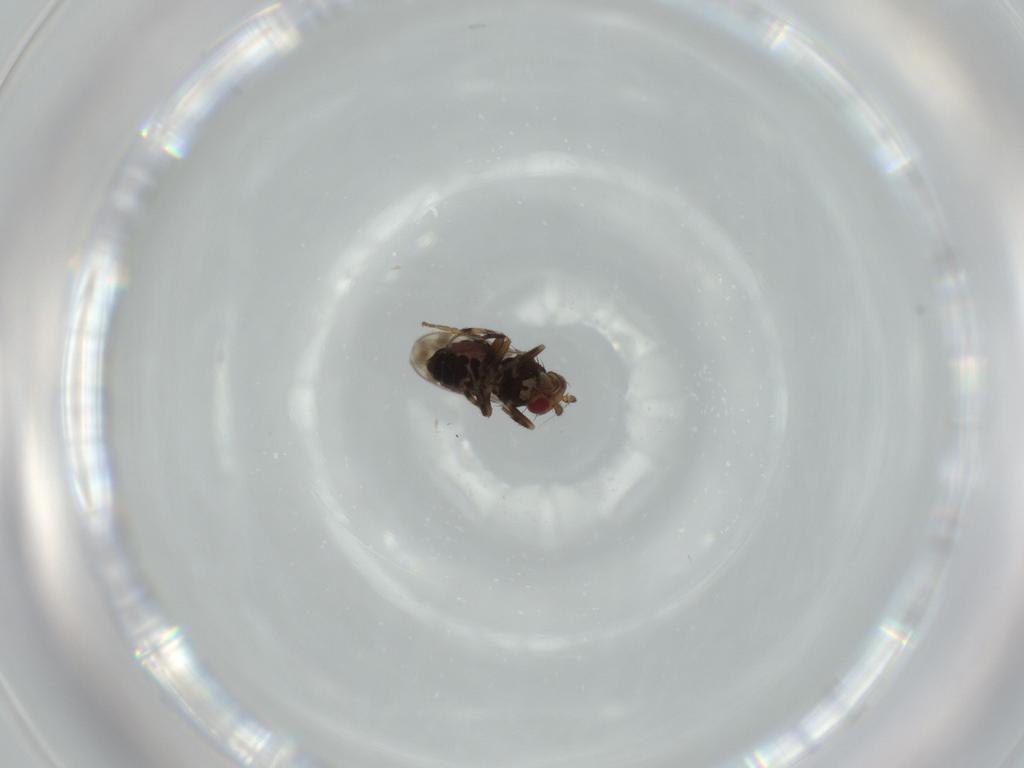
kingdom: Animalia
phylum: Arthropoda
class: Insecta
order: Diptera
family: Sphaeroceridae
